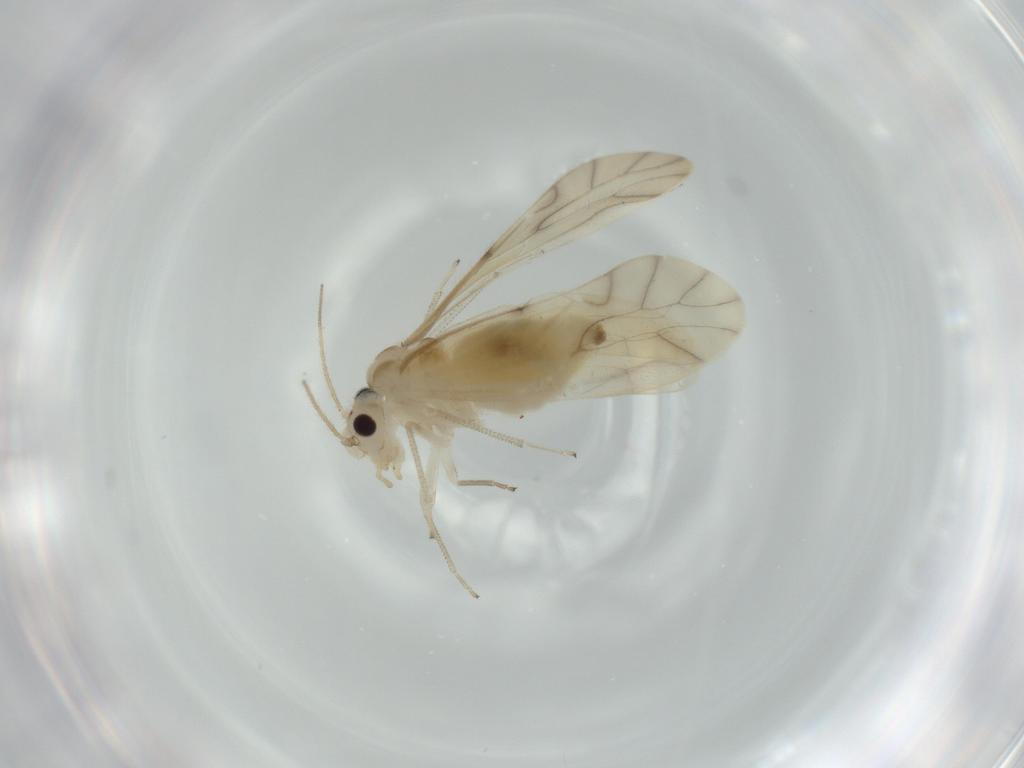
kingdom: Animalia
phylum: Arthropoda
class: Insecta
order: Psocodea
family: Caeciliusidae
